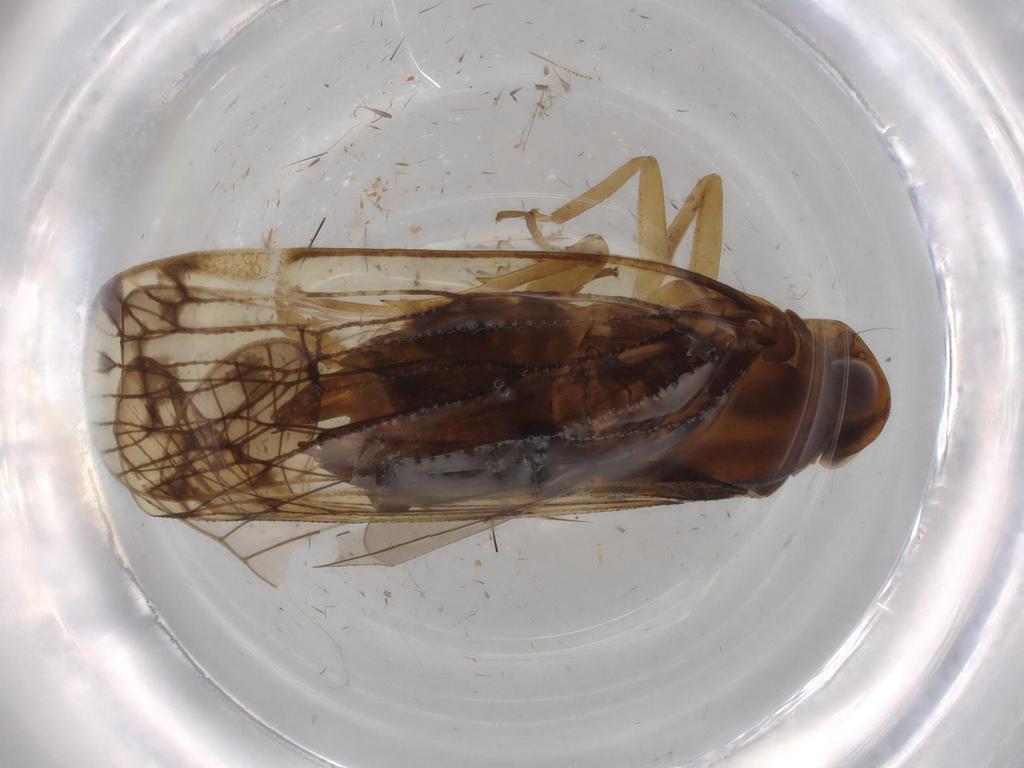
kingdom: Animalia
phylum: Arthropoda
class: Insecta
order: Hemiptera
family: Cixiidae
